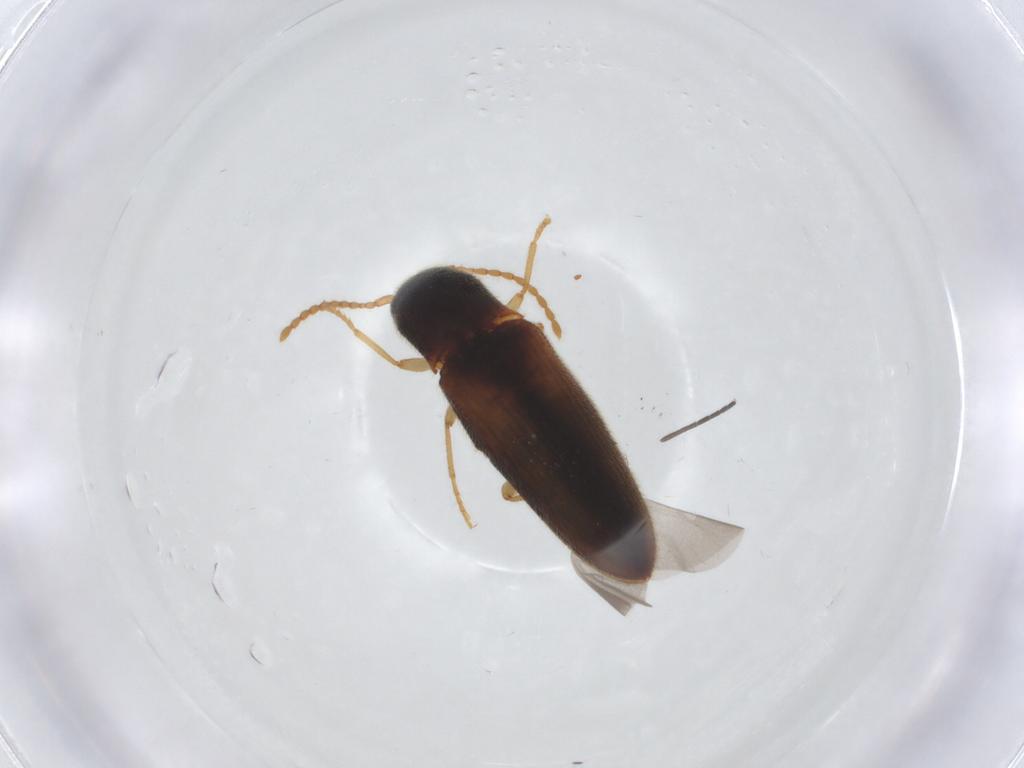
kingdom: Animalia
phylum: Arthropoda
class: Insecta
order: Coleoptera
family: Elateridae
